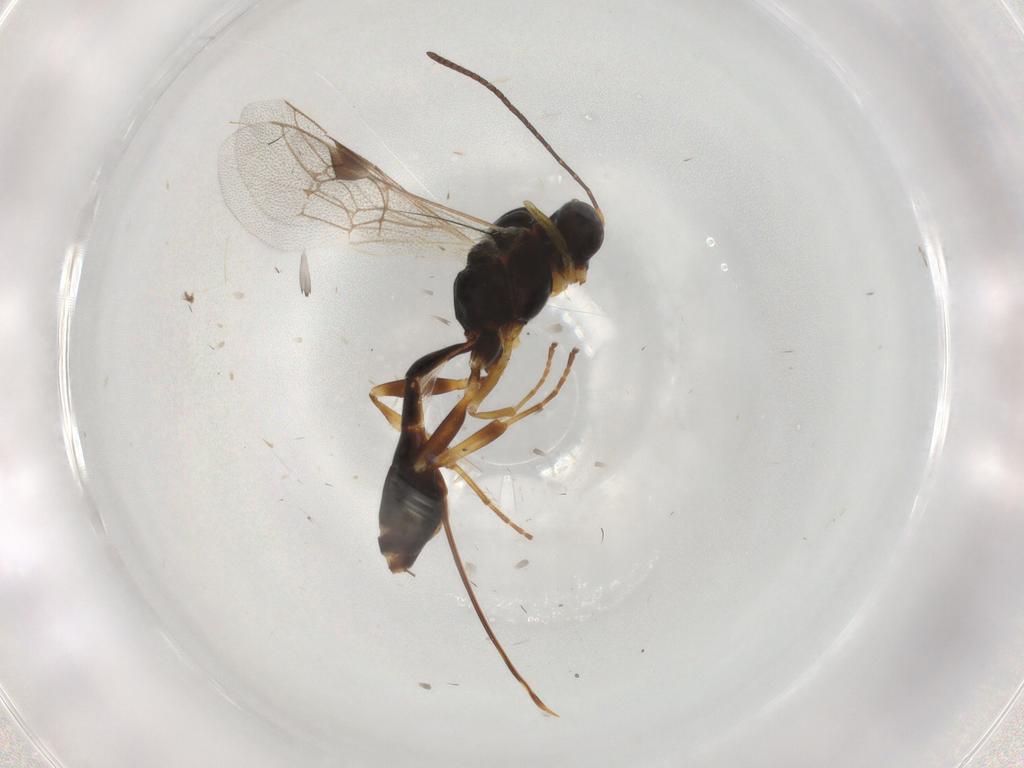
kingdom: Animalia
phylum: Arthropoda
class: Insecta
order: Hymenoptera
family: Ichneumonidae
